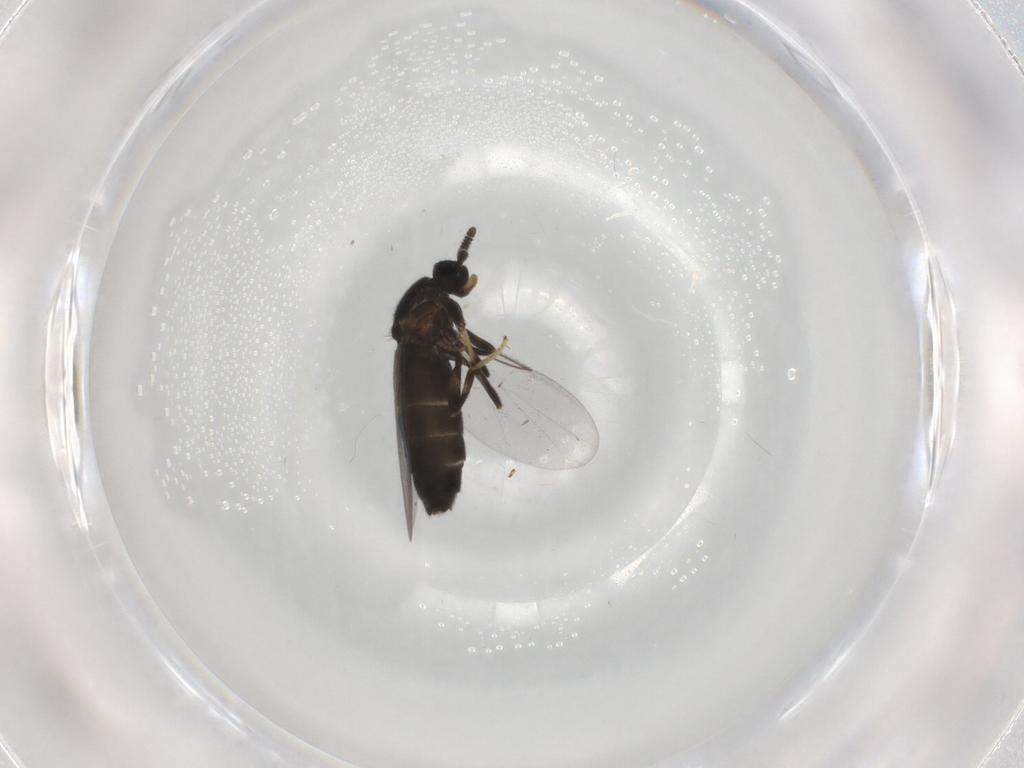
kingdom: Animalia
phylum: Arthropoda
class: Insecta
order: Diptera
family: Scatopsidae
